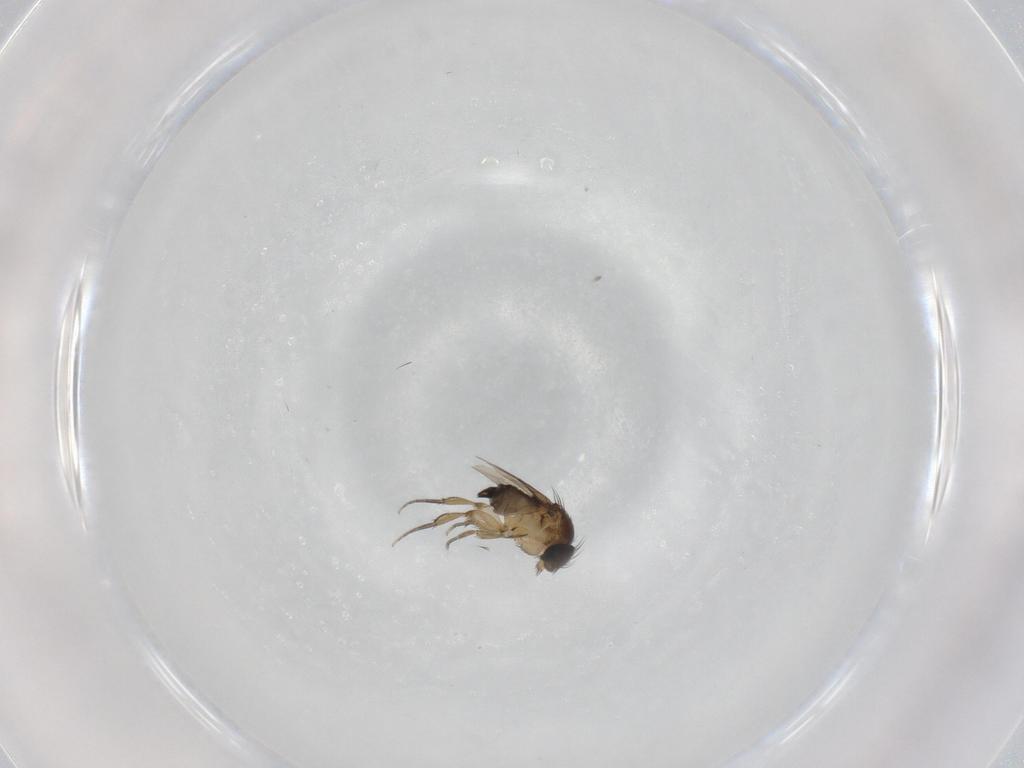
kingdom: Animalia
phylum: Arthropoda
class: Insecta
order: Diptera
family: Phoridae
